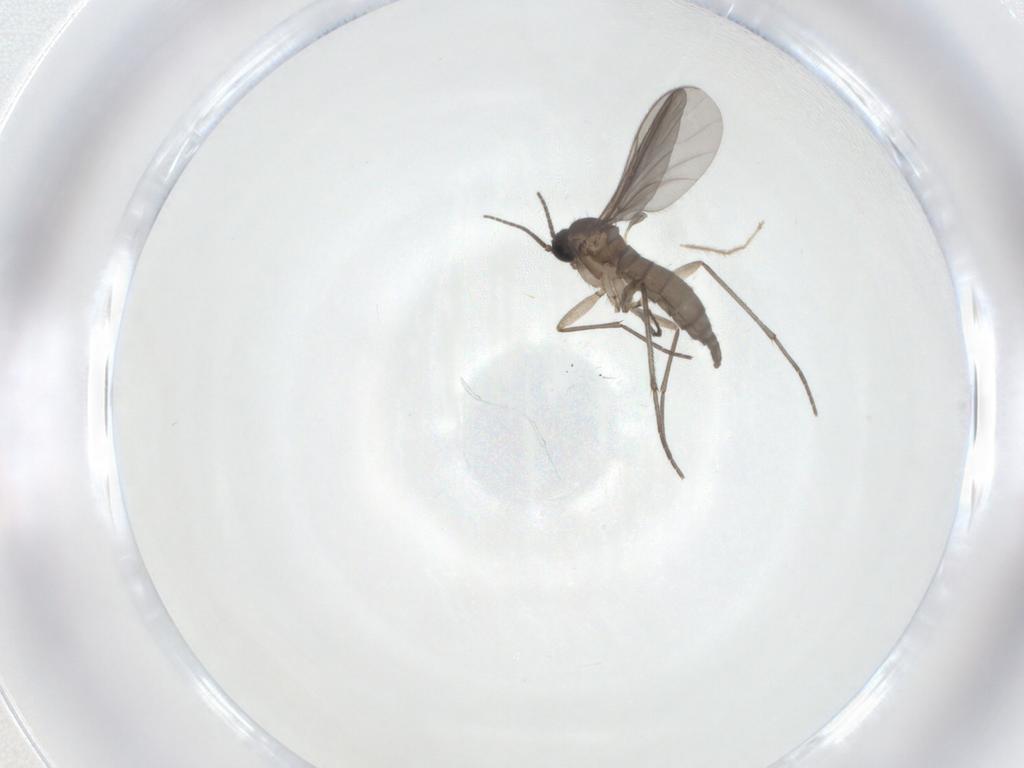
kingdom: Animalia
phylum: Arthropoda
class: Insecta
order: Diptera
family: Sciaridae
